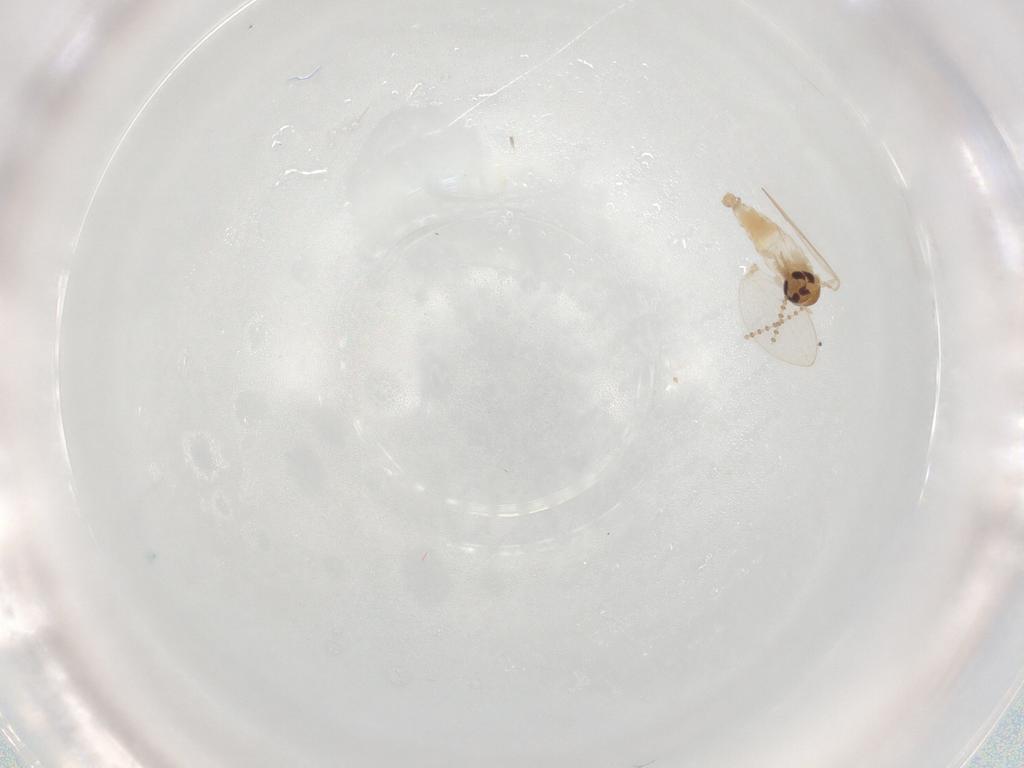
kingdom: Animalia
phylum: Arthropoda
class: Insecta
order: Diptera
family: Psychodidae
